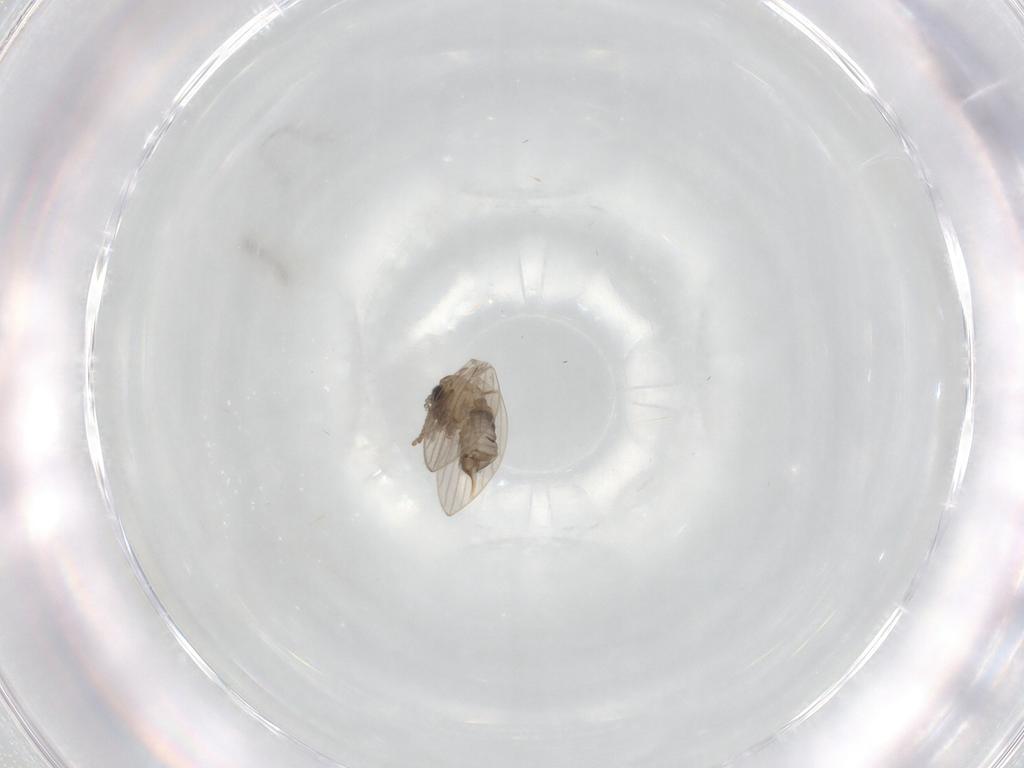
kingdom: Animalia
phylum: Arthropoda
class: Insecta
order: Diptera
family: Psychodidae
